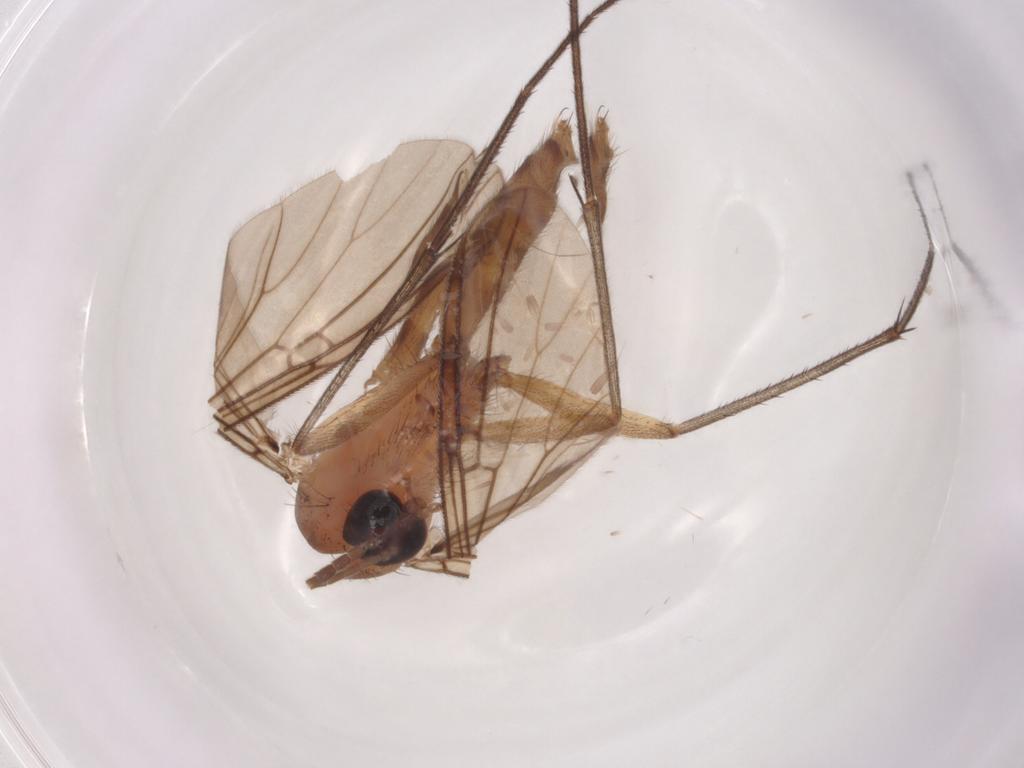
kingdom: Animalia
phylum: Arthropoda
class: Insecta
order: Diptera
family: Mycetophilidae
